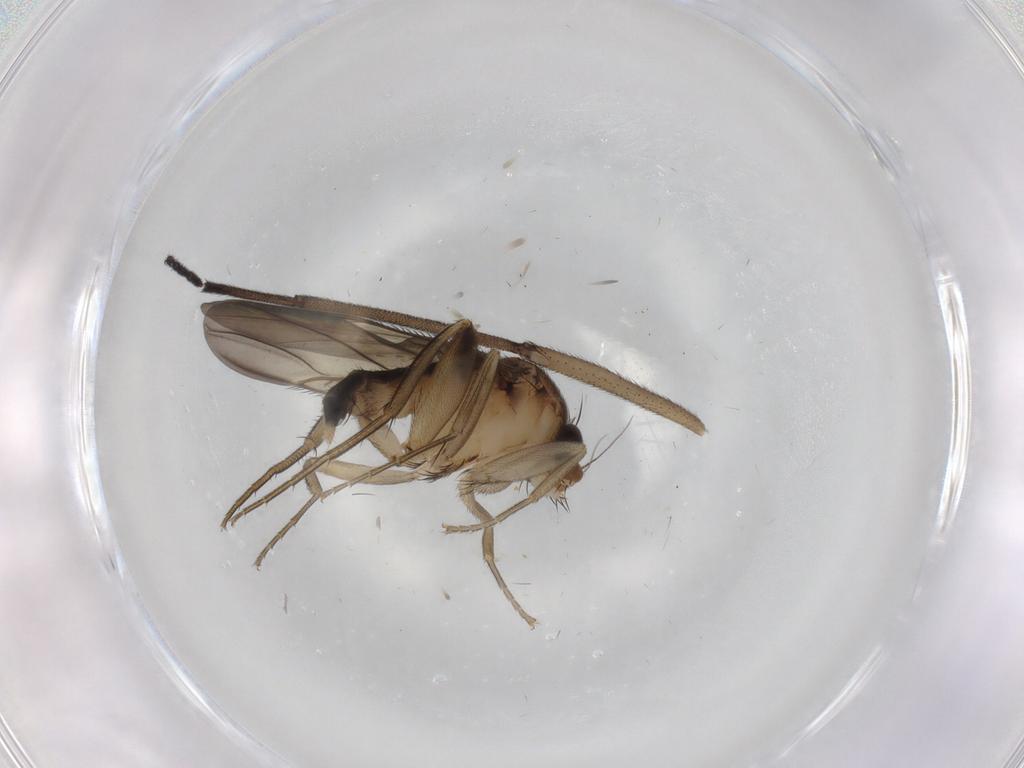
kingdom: Animalia
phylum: Arthropoda
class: Insecta
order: Diptera
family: Phoridae
